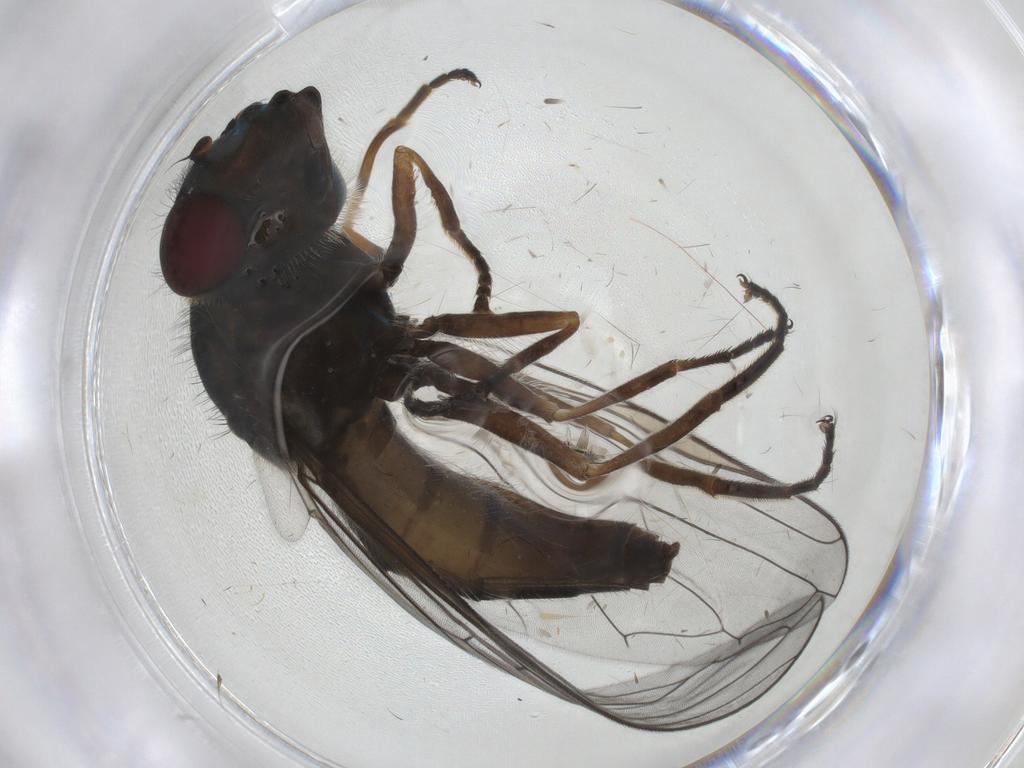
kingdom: Animalia
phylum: Arthropoda
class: Insecta
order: Diptera
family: Syrphidae
